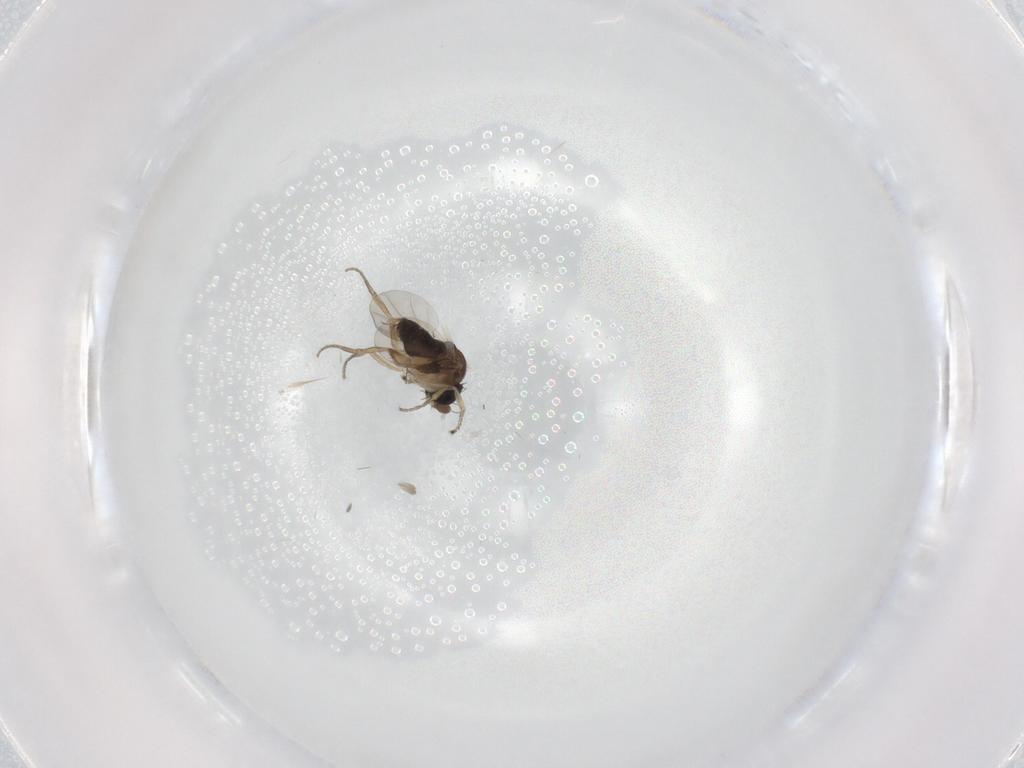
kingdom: Animalia
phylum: Arthropoda
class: Insecta
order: Diptera
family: Phoridae
